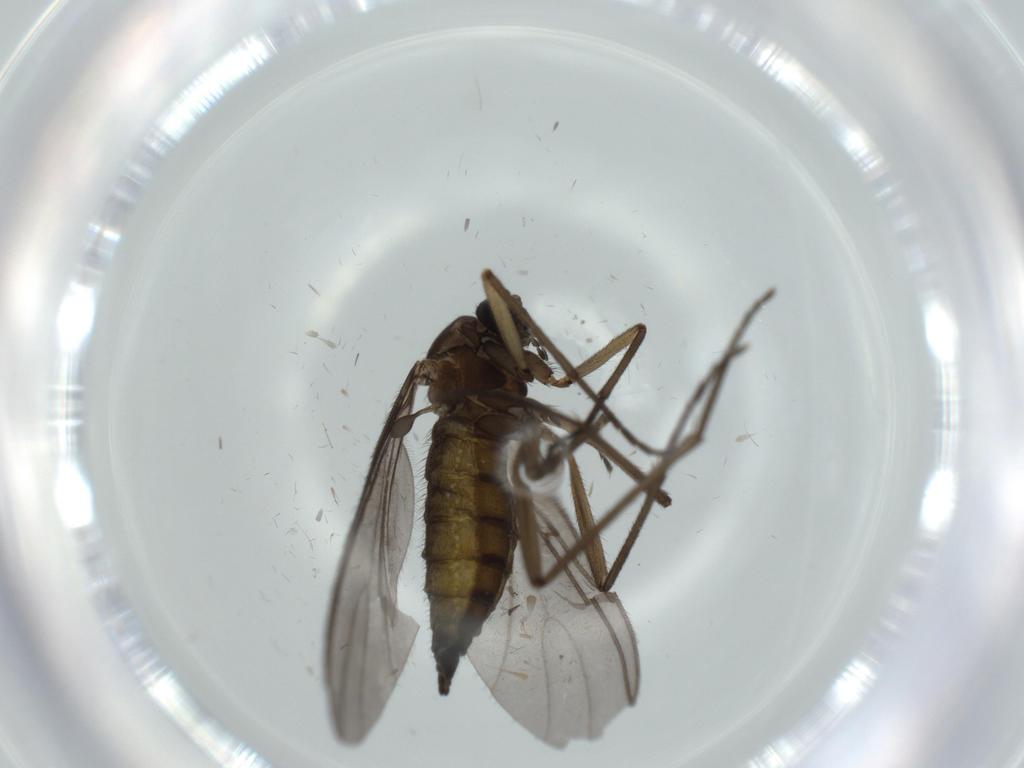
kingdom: Animalia
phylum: Arthropoda
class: Insecta
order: Diptera
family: Sciaridae
